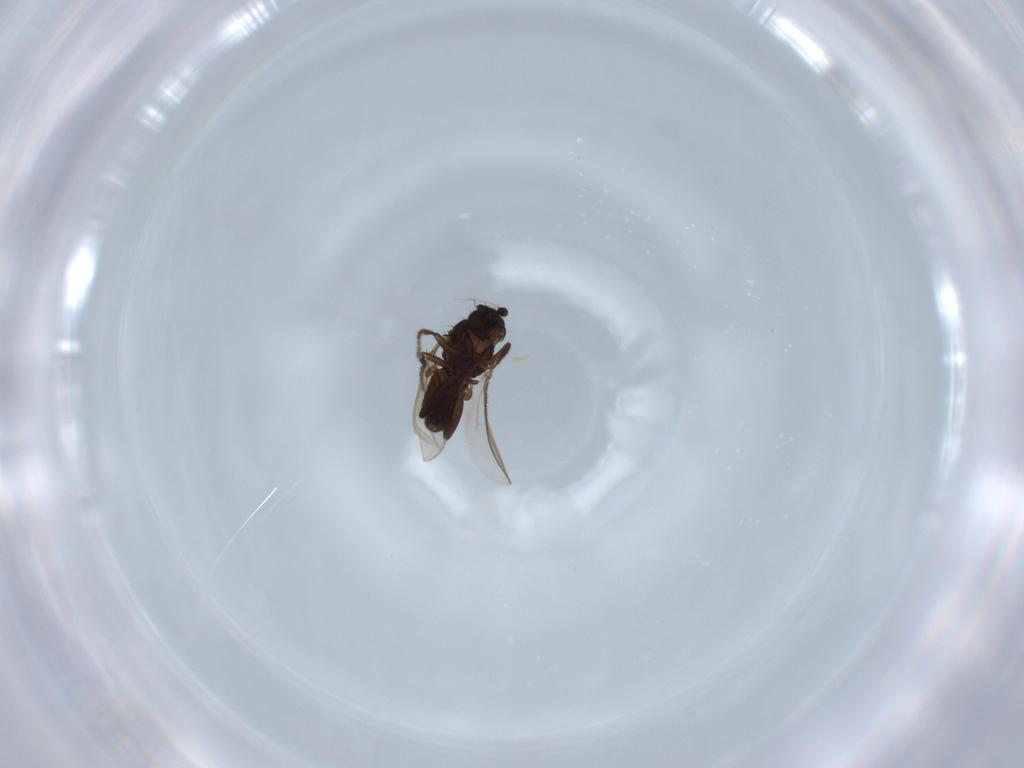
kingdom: Animalia
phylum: Arthropoda
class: Insecta
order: Diptera
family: Sphaeroceridae
